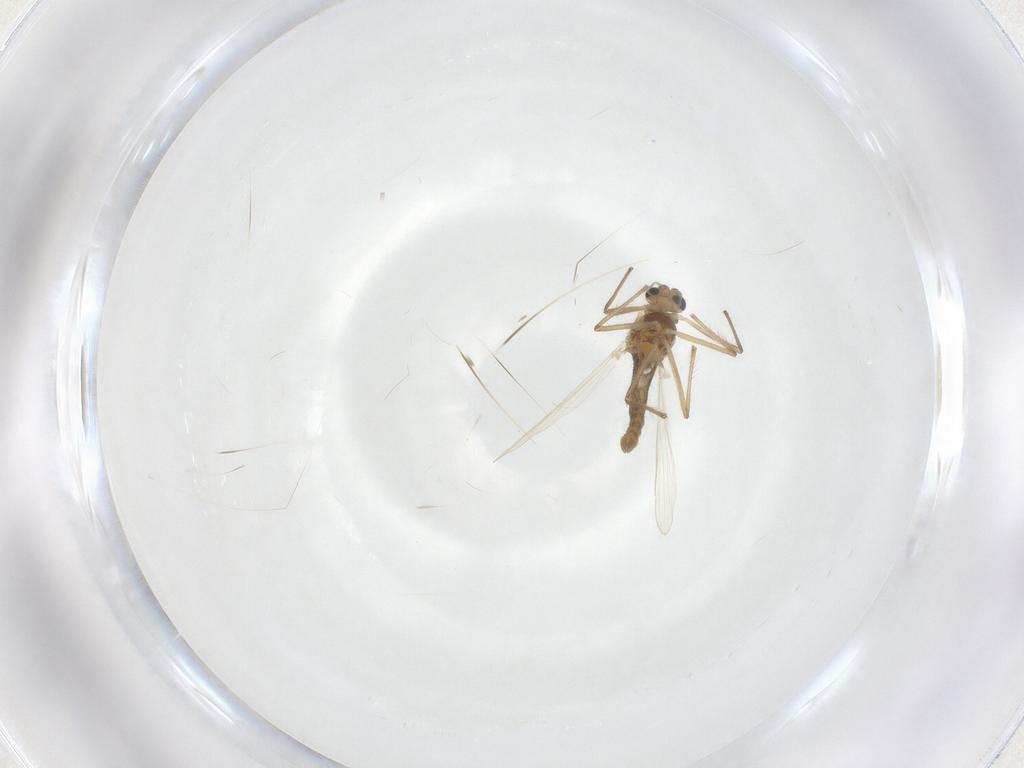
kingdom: Animalia
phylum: Arthropoda
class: Insecta
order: Diptera
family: Chironomidae
